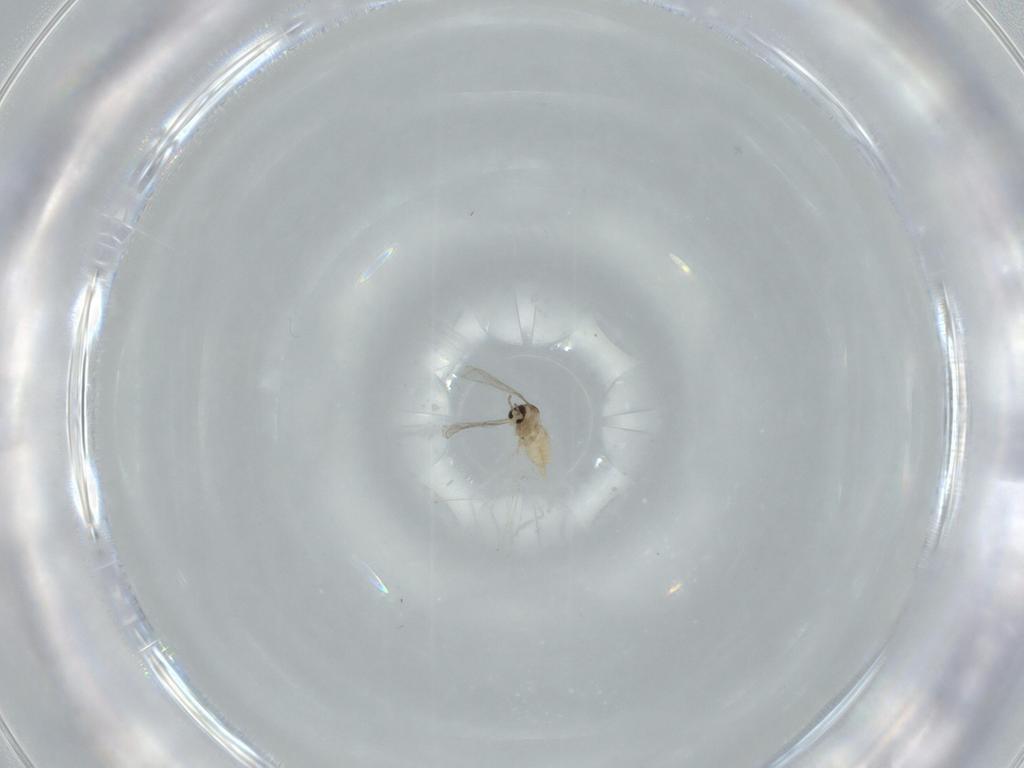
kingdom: Animalia
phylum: Arthropoda
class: Insecta
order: Diptera
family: Cecidomyiidae
